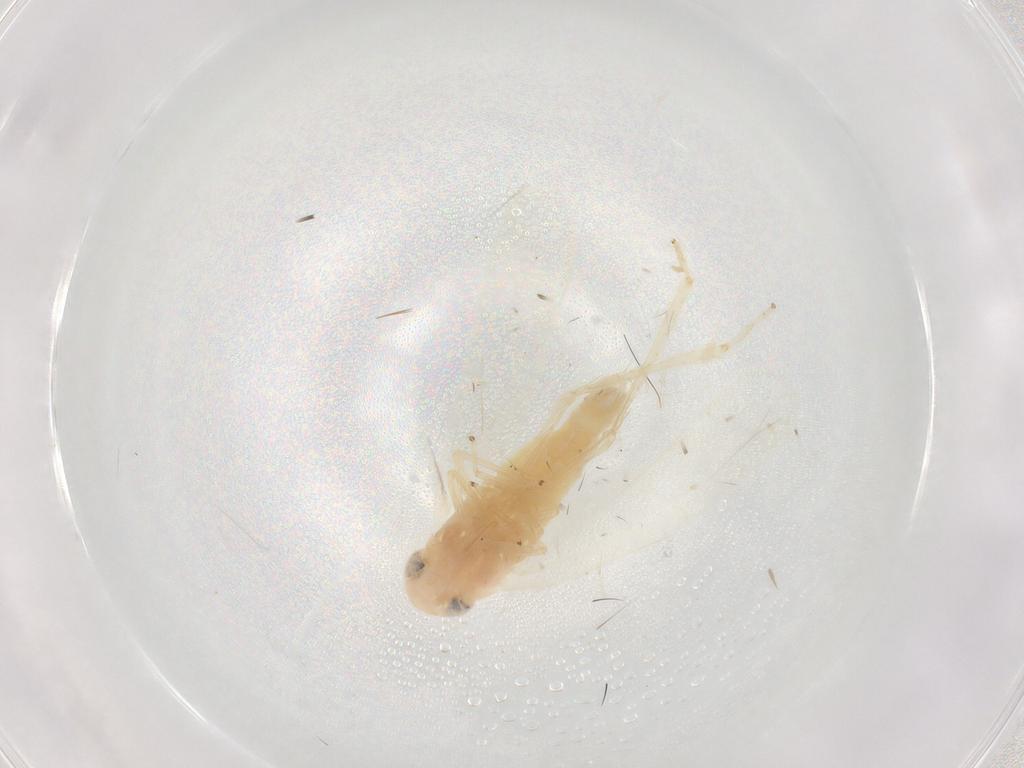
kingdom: Animalia
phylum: Arthropoda
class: Insecta
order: Hemiptera
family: Cicadellidae
